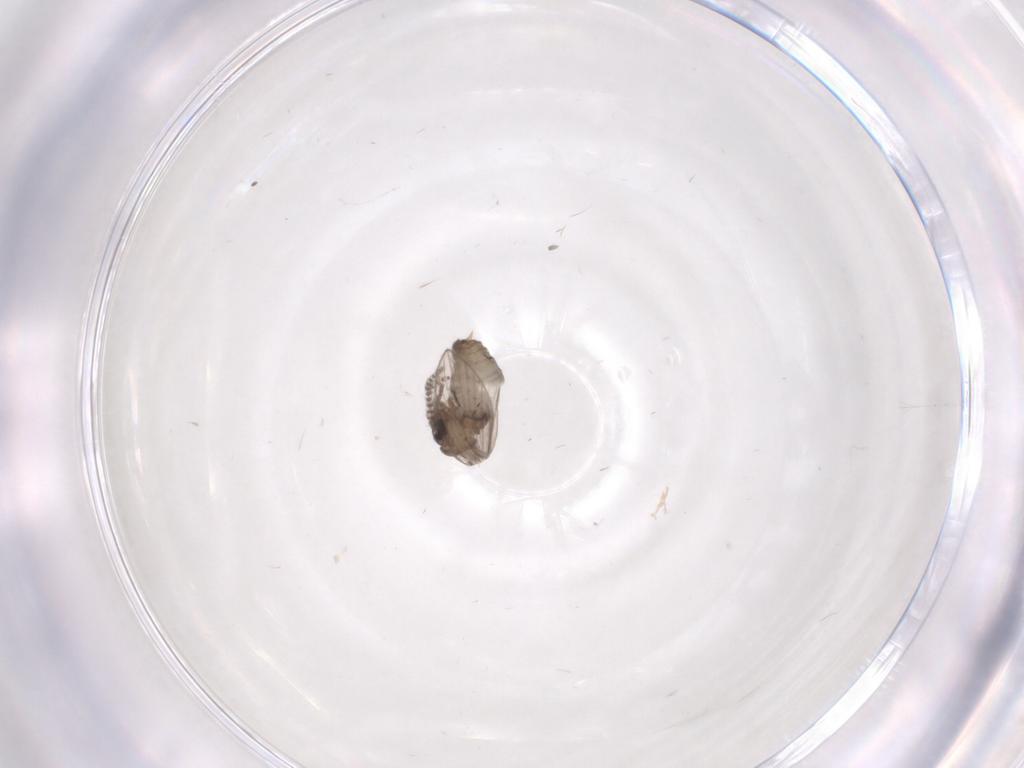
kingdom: Animalia
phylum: Arthropoda
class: Insecta
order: Diptera
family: Psychodidae
